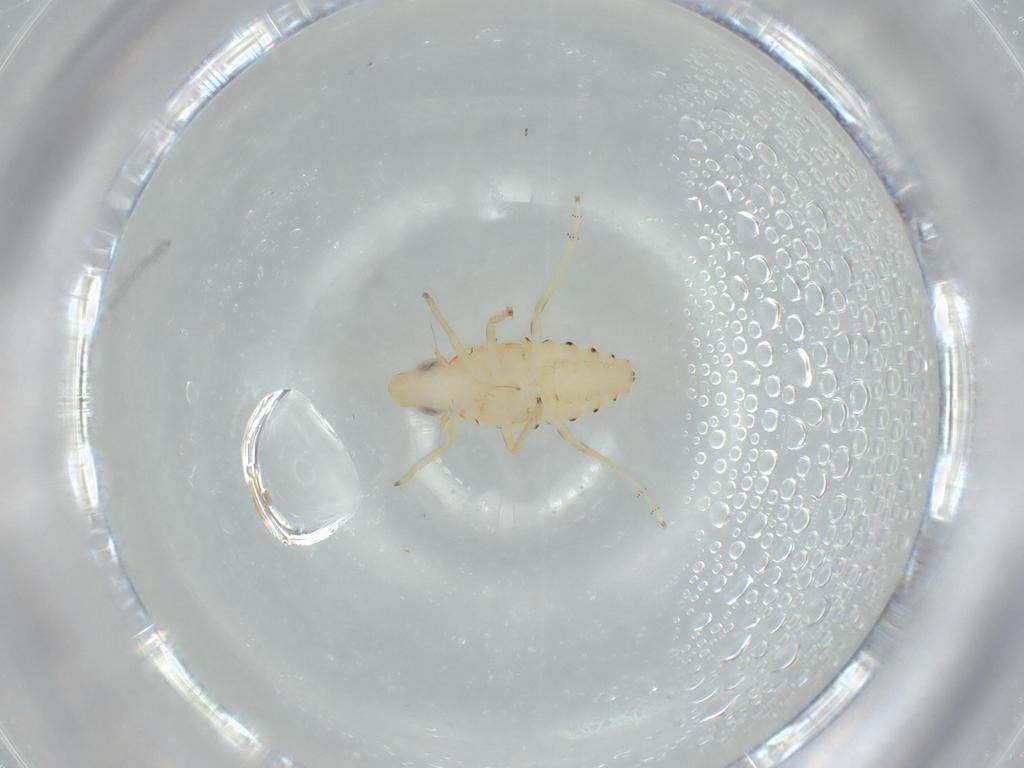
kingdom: Animalia
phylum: Arthropoda
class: Insecta
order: Hemiptera
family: Tropiduchidae
